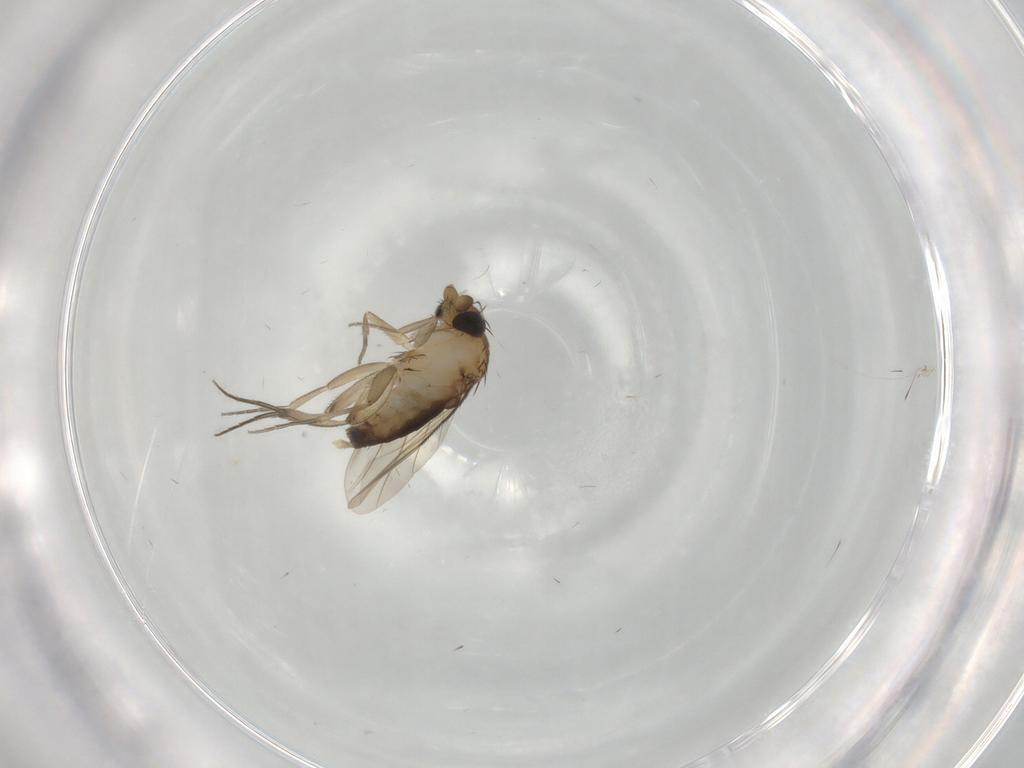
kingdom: Animalia
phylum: Arthropoda
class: Insecta
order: Diptera
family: Phoridae
